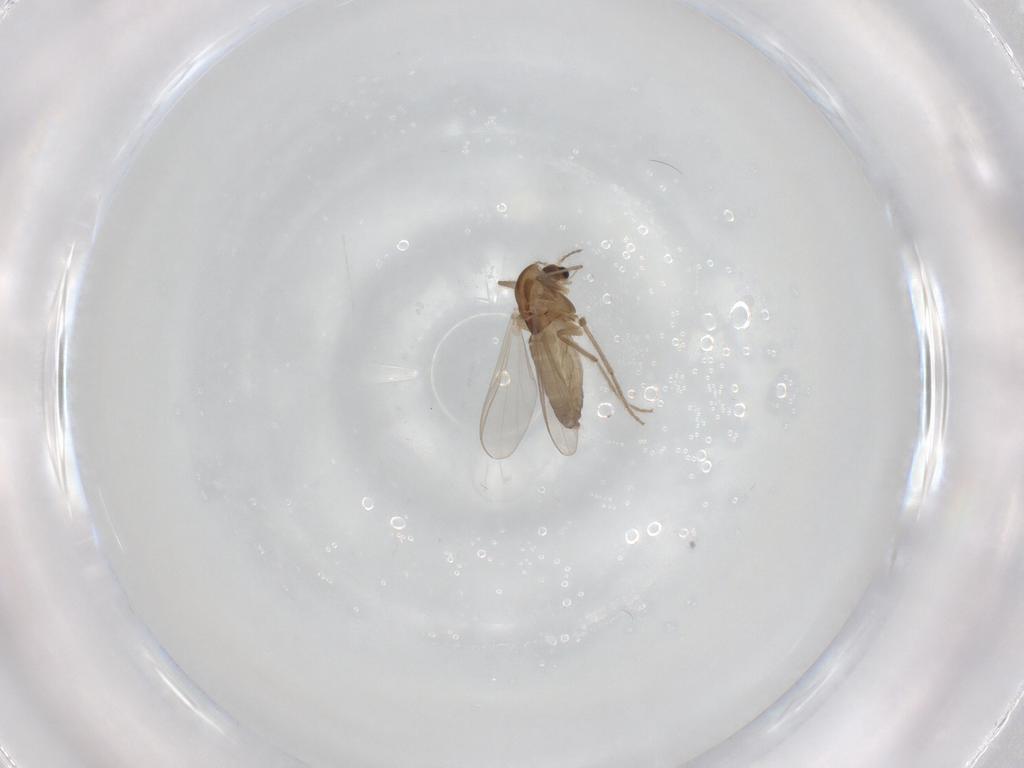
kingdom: Animalia
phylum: Arthropoda
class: Insecta
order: Diptera
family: Chironomidae
